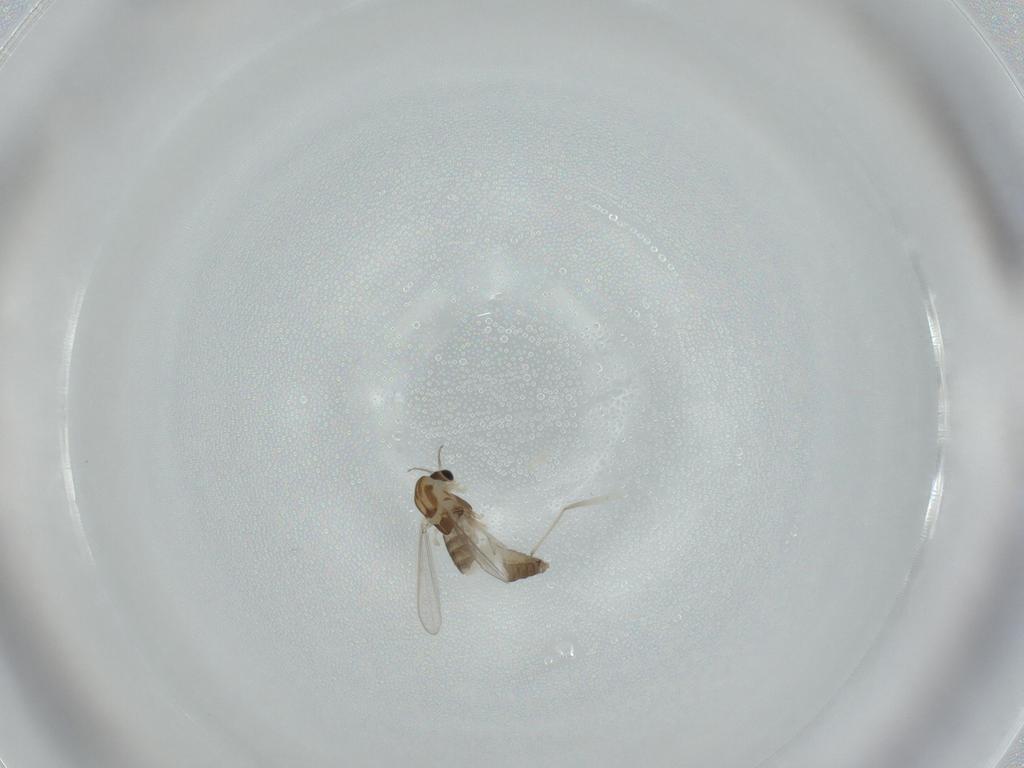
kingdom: Animalia
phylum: Arthropoda
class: Insecta
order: Diptera
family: Chironomidae
